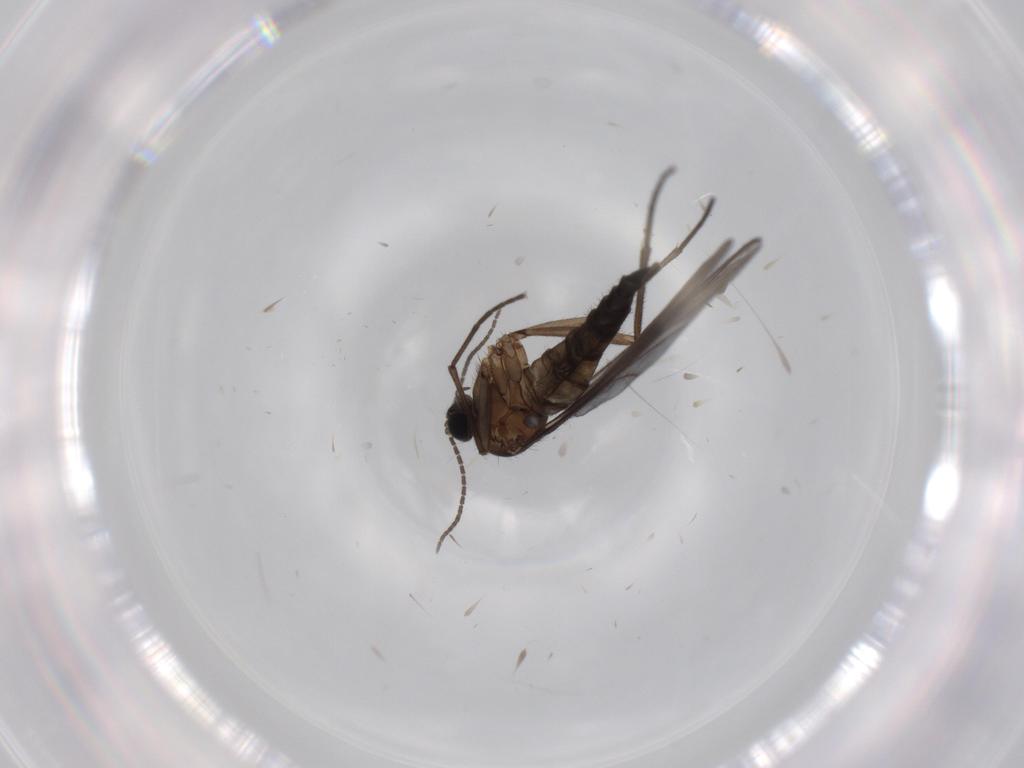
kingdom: Animalia
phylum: Arthropoda
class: Insecta
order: Diptera
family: Sciaridae
